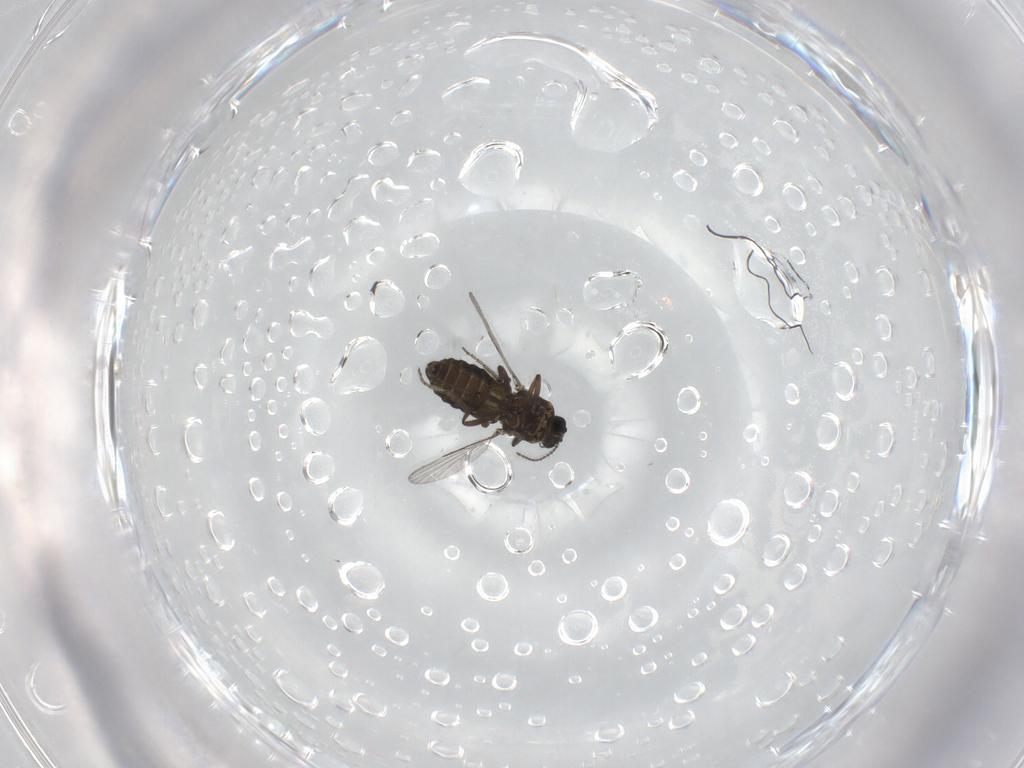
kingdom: Animalia
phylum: Arthropoda
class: Insecta
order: Diptera
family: Ceratopogonidae
